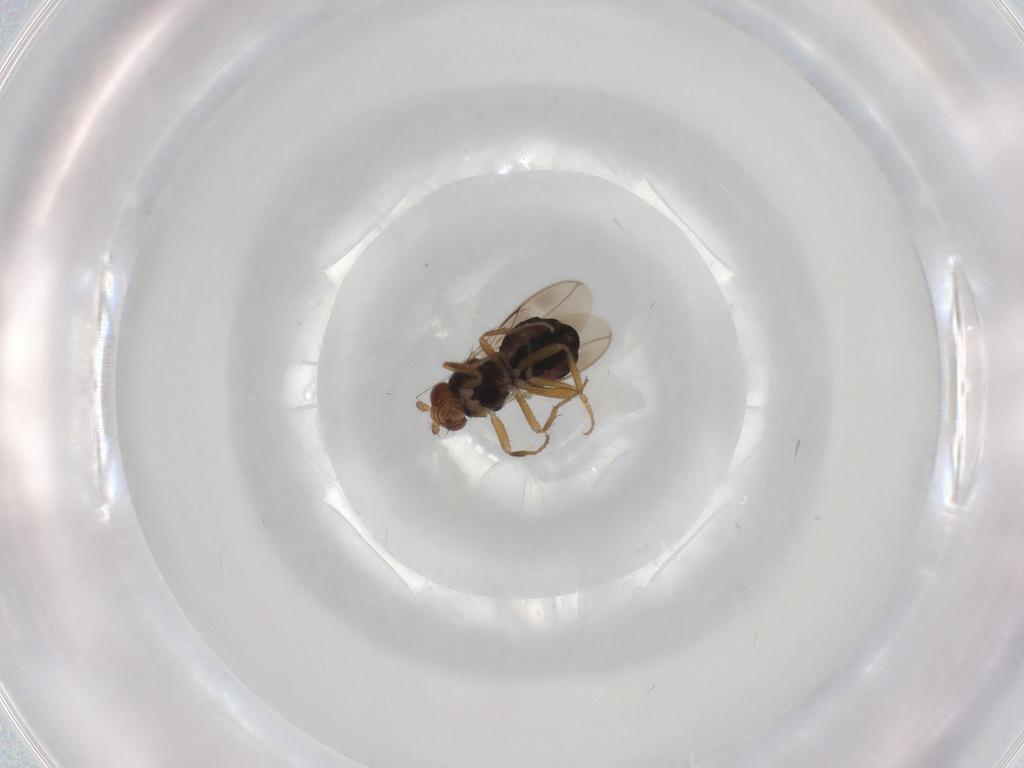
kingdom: Animalia
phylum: Arthropoda
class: Insecta
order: Diptera
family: Sphaeroceridae
